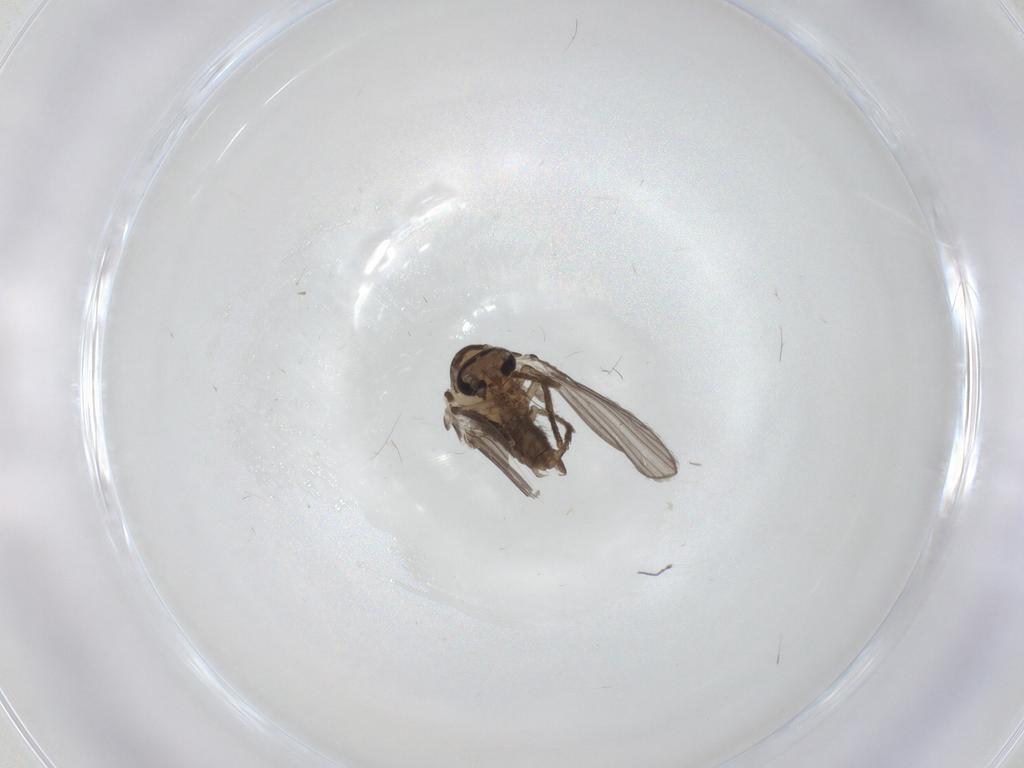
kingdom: Animalia
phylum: Arthropoda
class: Insecta
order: Diptera
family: Psychodidae
